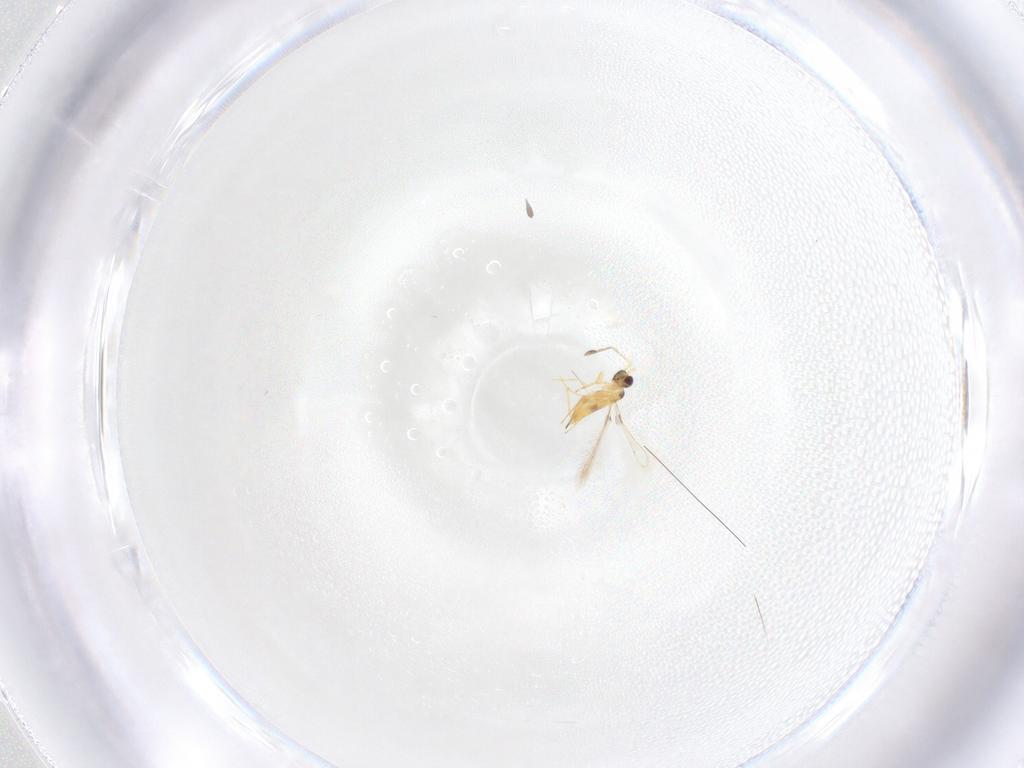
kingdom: Animalia
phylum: Arthropoda
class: Insecta
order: Hymenoptera
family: Mymaridae
